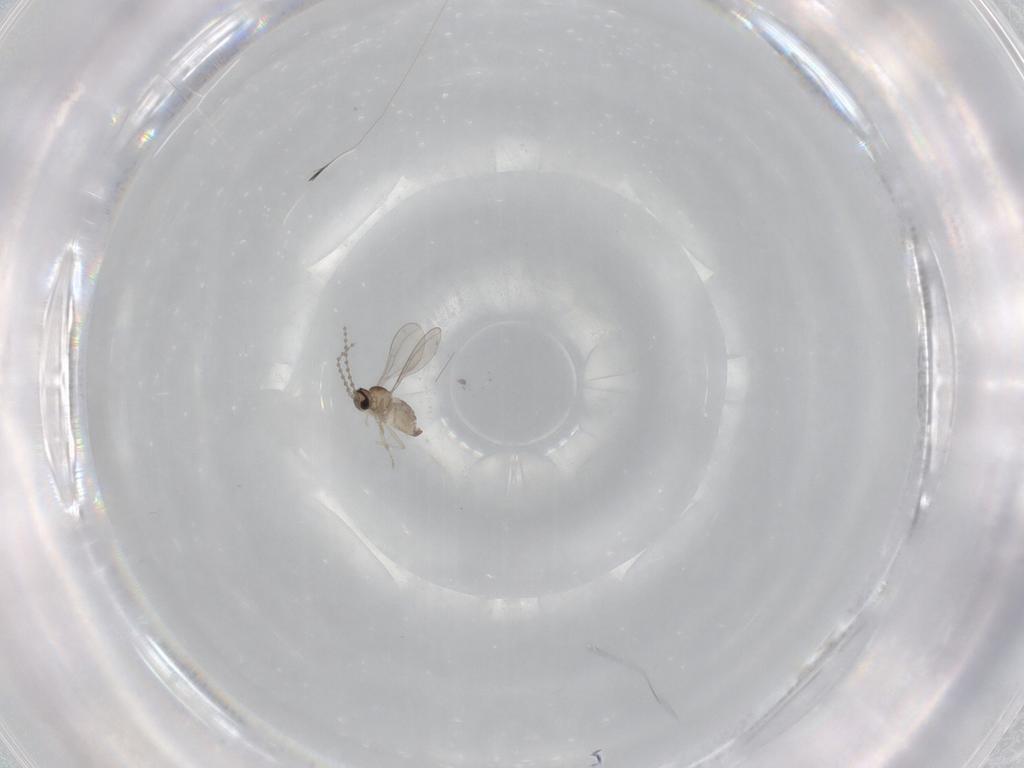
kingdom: Animalia
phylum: Arthropoda
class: Insecta
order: Diptera
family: Cecidomyiidae
